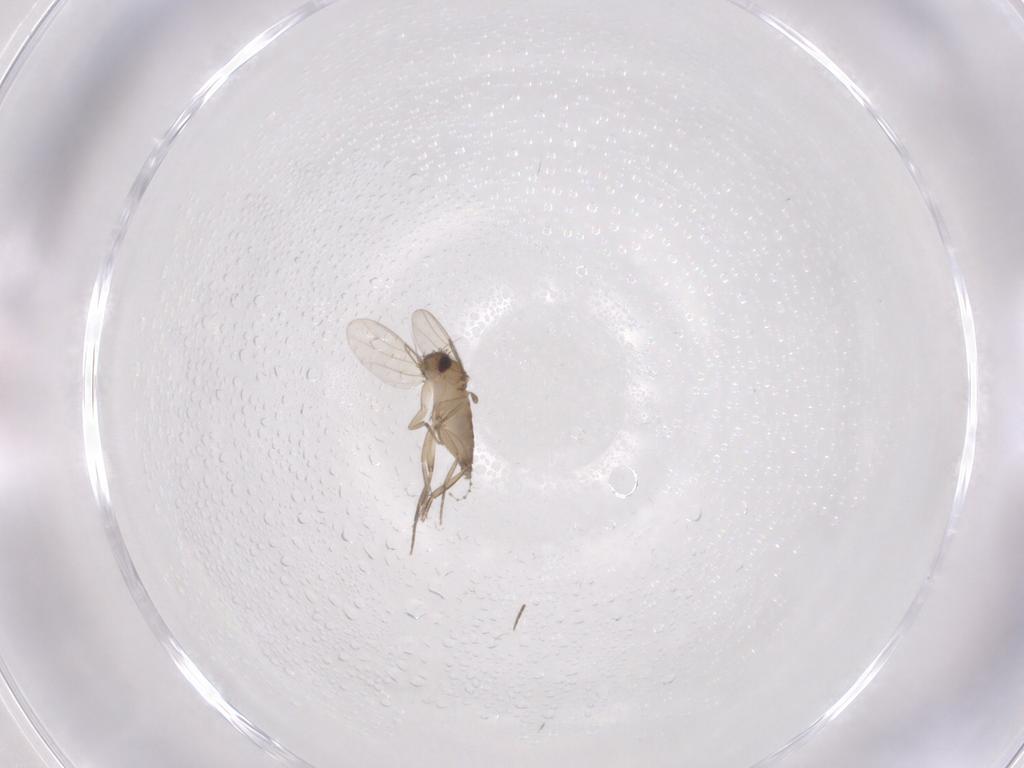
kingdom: Animalia
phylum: Arthropoda
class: Insecta
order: Diptera
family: Phoridae
